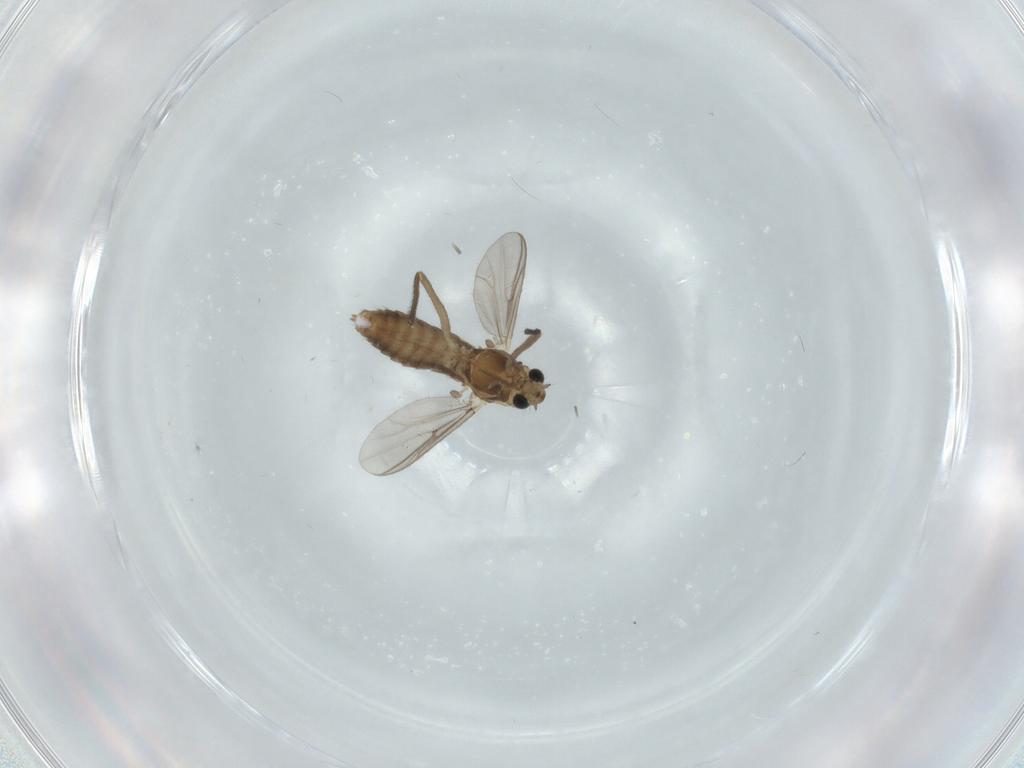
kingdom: Animalia
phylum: Arthropoda
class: Insecta
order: Diptera
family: Chironomidae
